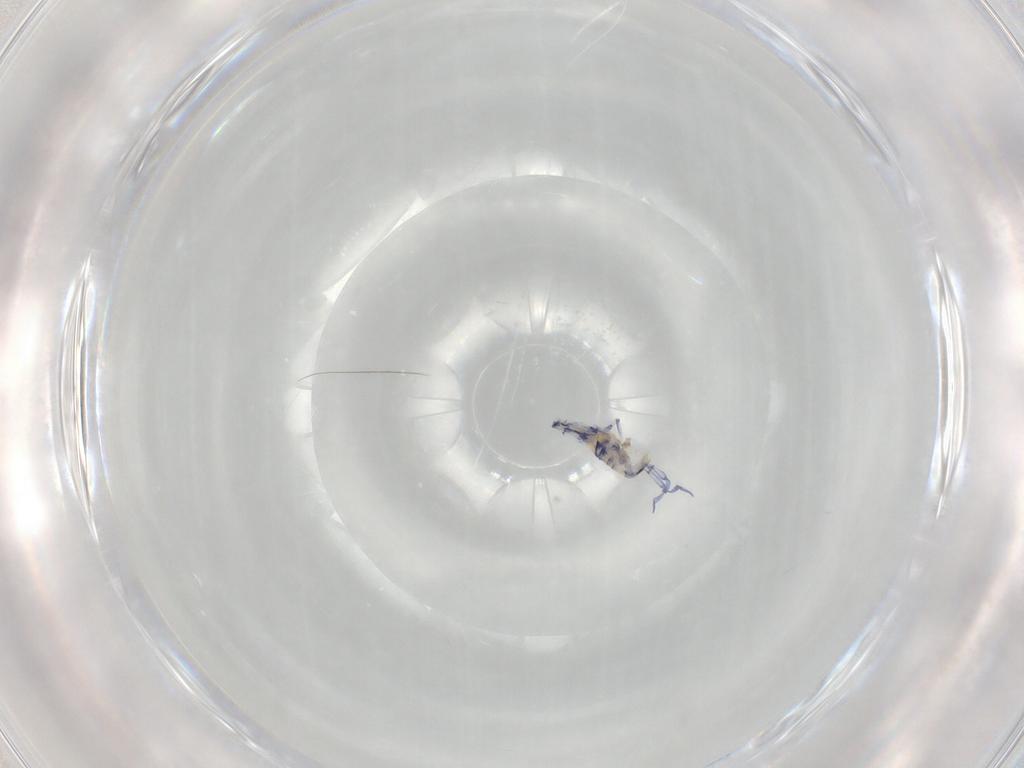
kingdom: Animalia
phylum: Arthropoda
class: Collembola
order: Entomobryomorpha
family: Entomobryidae
